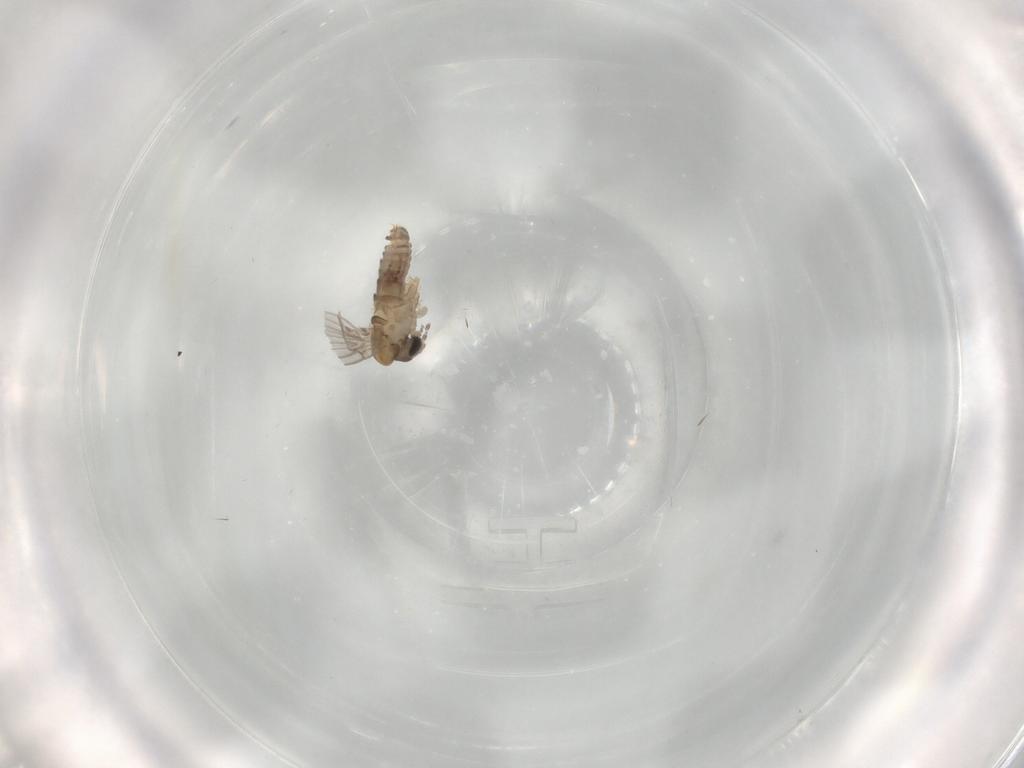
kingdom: Animalia
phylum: Arthropoda
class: Insecta
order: Diptera
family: Psychodidae
